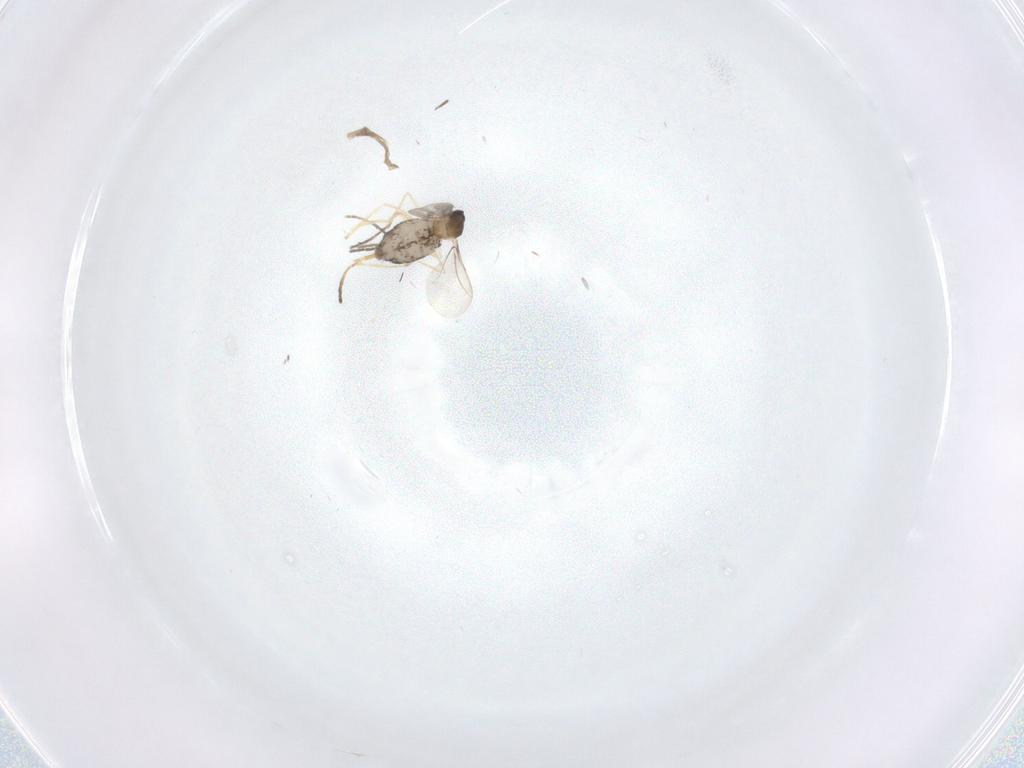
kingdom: Animalia
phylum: Arthropoda
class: Insecta
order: Diptera
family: Cecidomyiidae
